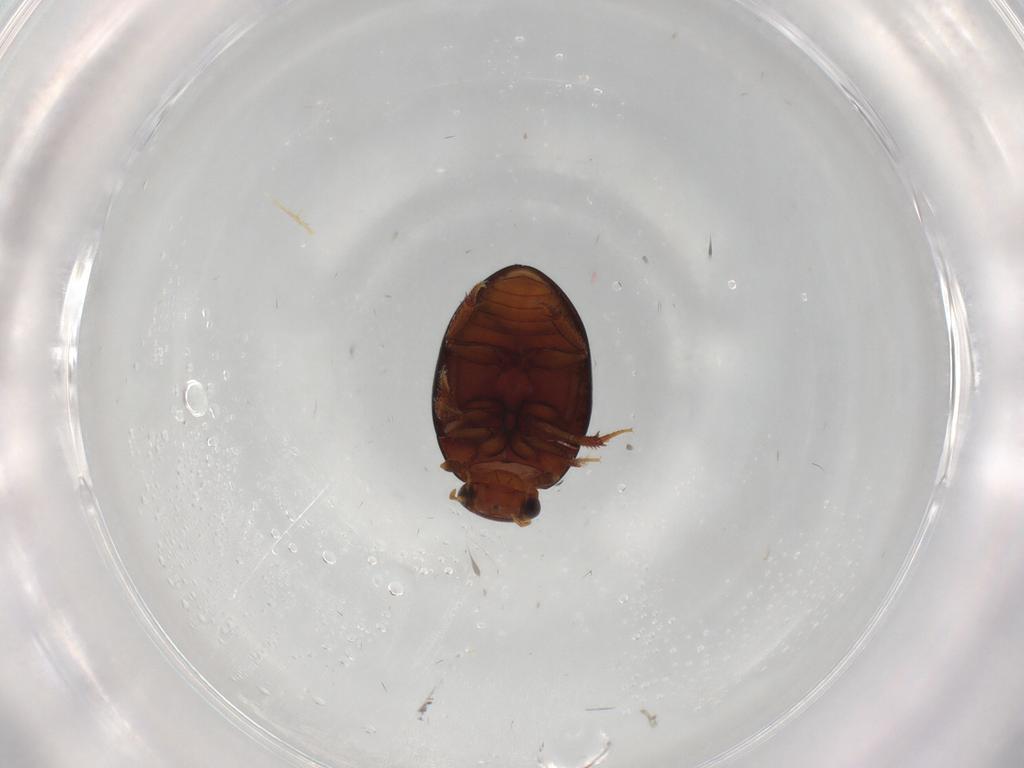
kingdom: Animalia
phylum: Arthropoda
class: Insecta
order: Coleoptera
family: Hydrophilidae
